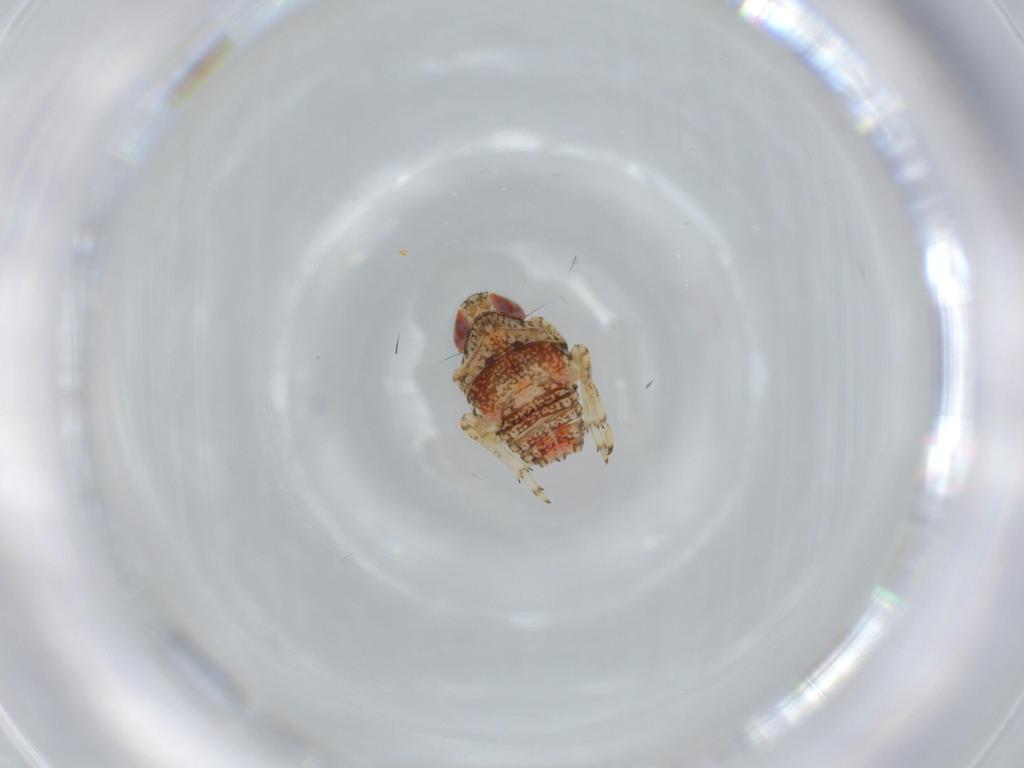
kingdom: Animalia
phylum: Arthropoda
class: Insecta
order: Hemiptera
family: Issidae
